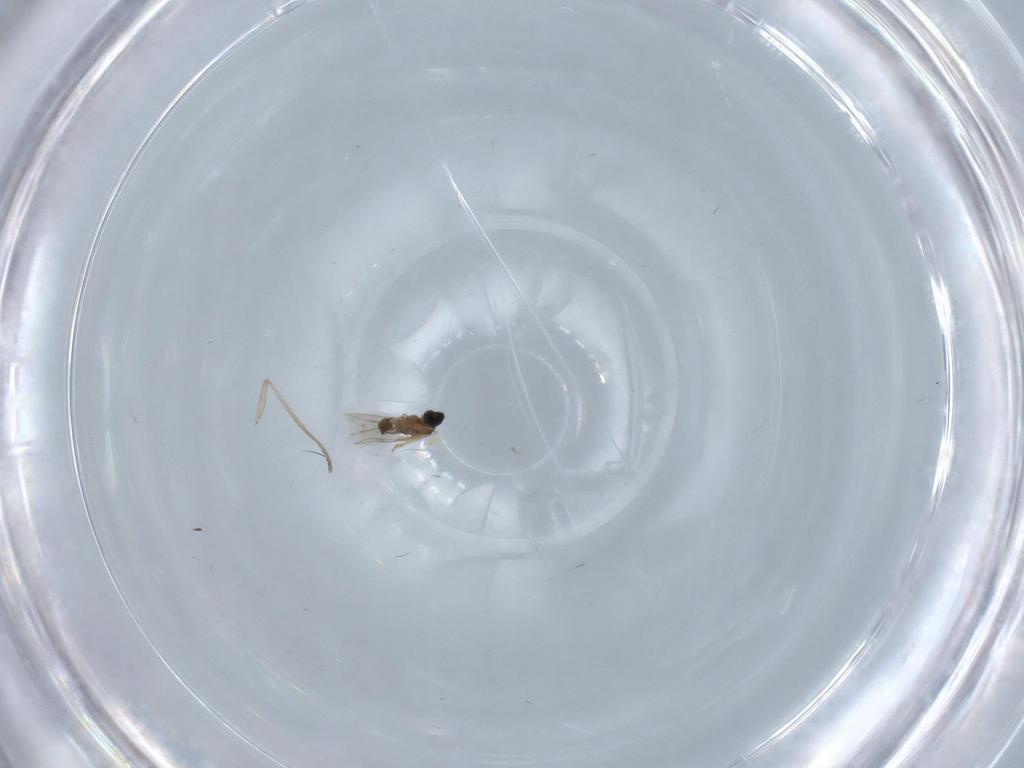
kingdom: Animalia
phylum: Arthropoda
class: Insecta
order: Diptera
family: Cecidomyiidae
